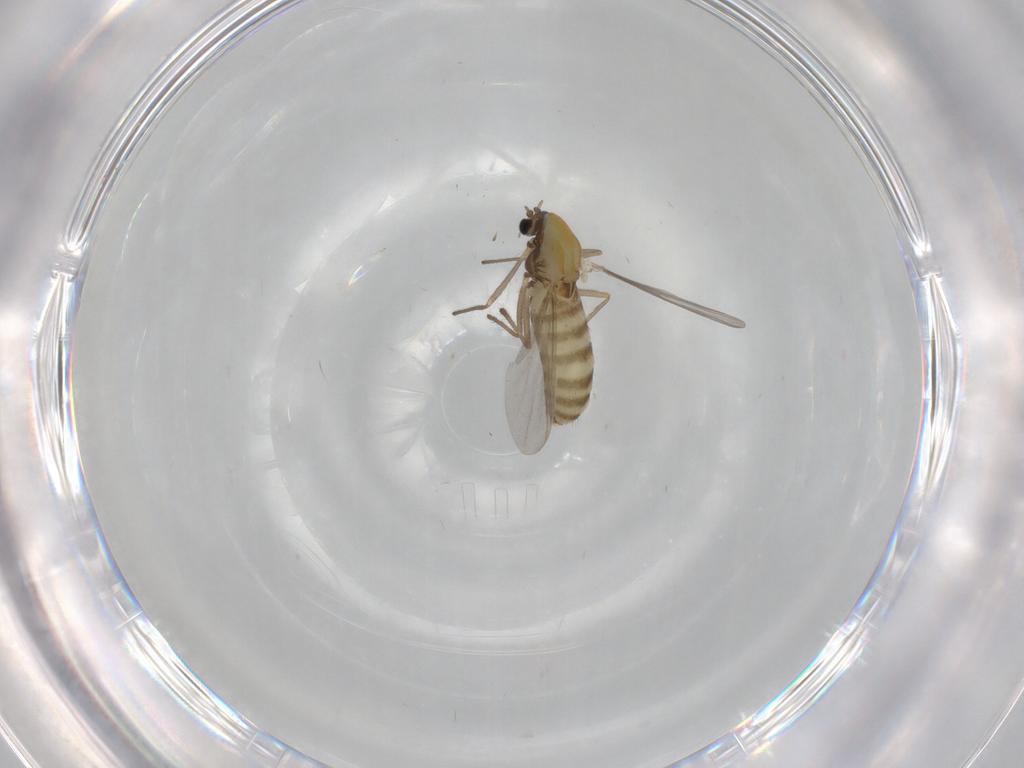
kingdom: Animalia
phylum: Arthropoda
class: Insecta
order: Diptera
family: Chironomidae
